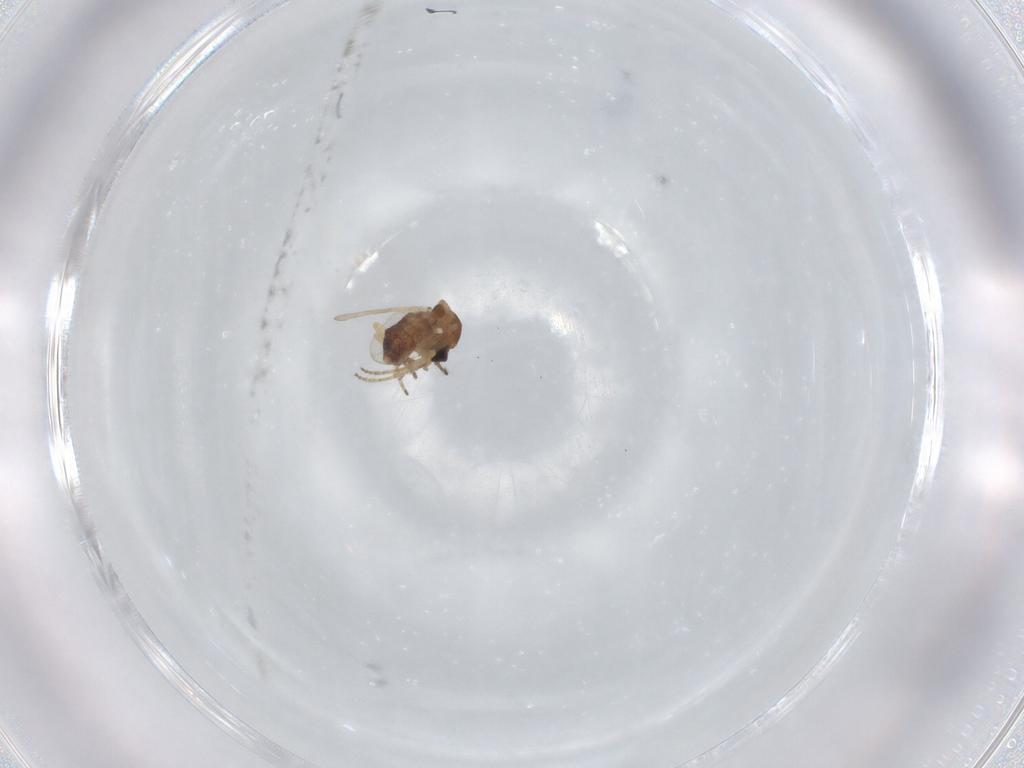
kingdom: Animalia
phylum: Arthropoda
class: Insecta
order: Diptera
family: Ceratopogonidae
